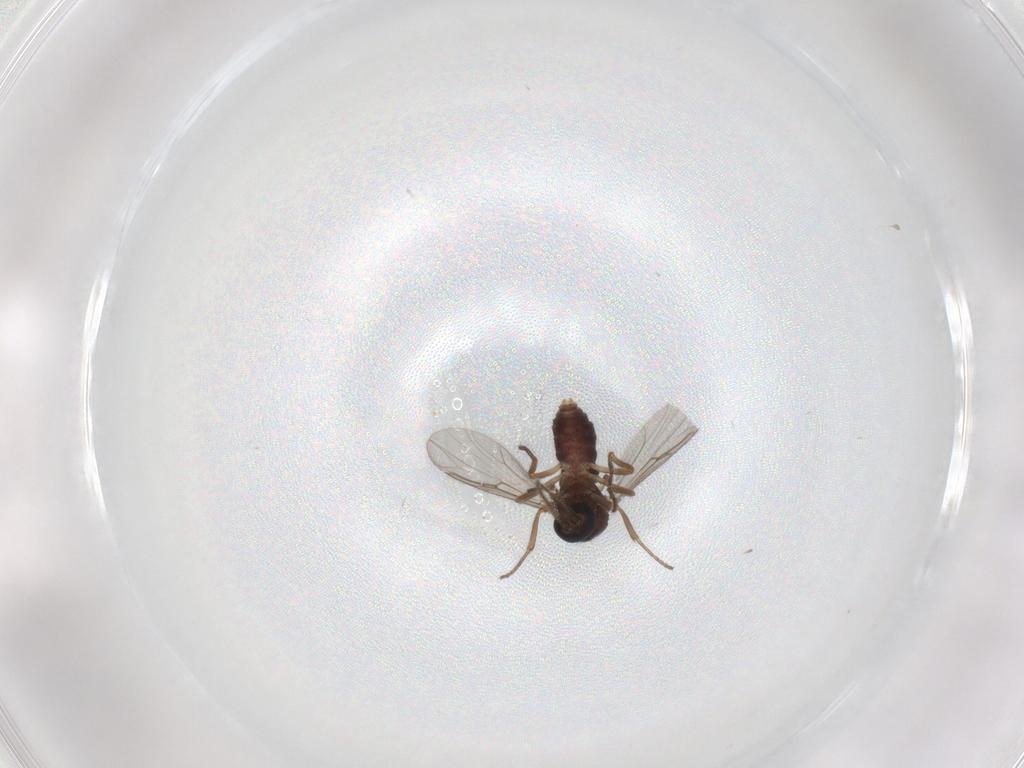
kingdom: Animalia
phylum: Arthropoda
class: Insecta
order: Diptera
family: Ceratopogonidae
